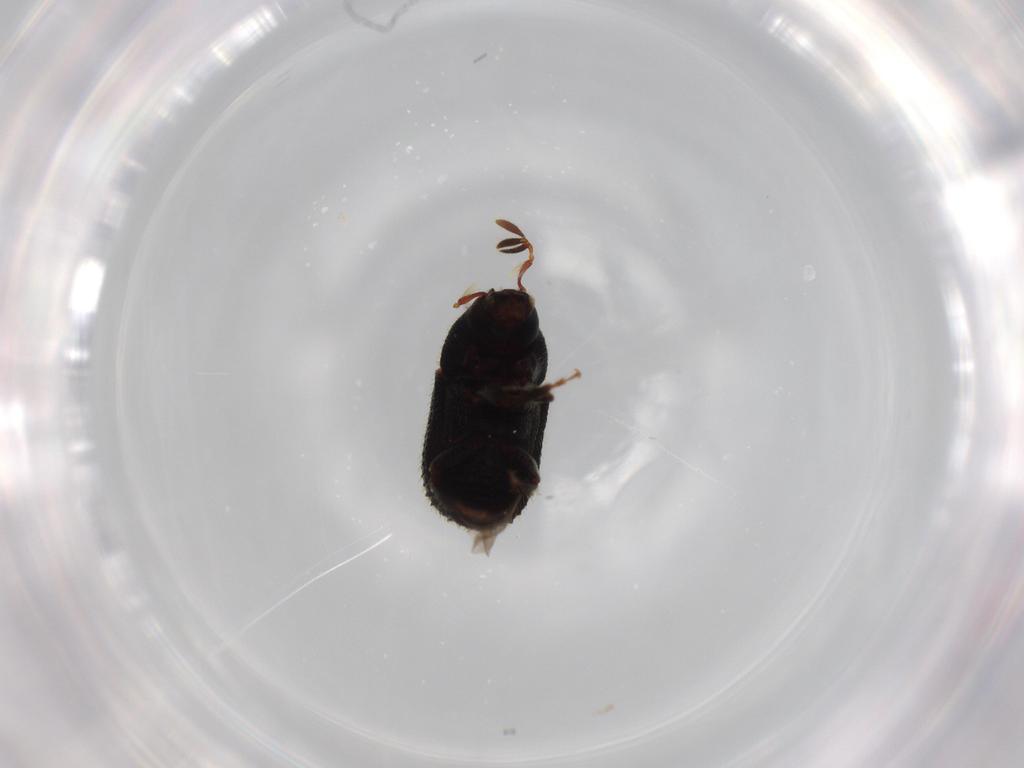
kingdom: Animalia
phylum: Arthropoda
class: Insecta
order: Coleoptera
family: Curculionidae
